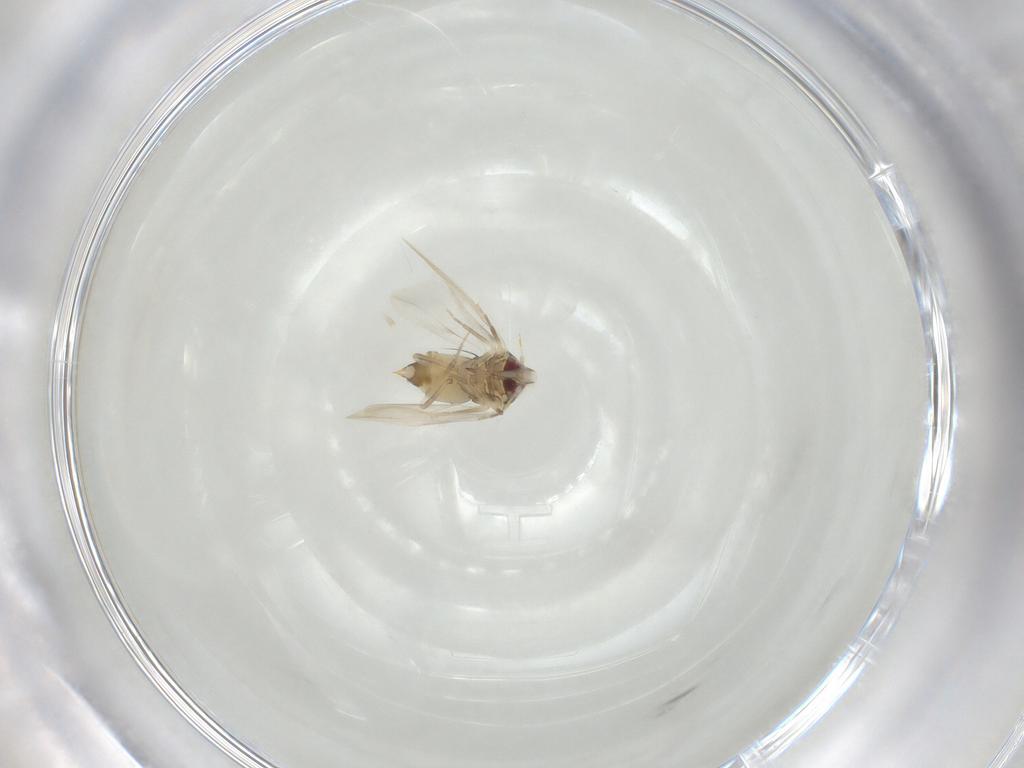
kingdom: Animalia
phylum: Arthropoda
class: Insecta
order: Hemiptera
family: Aleyrodidae
